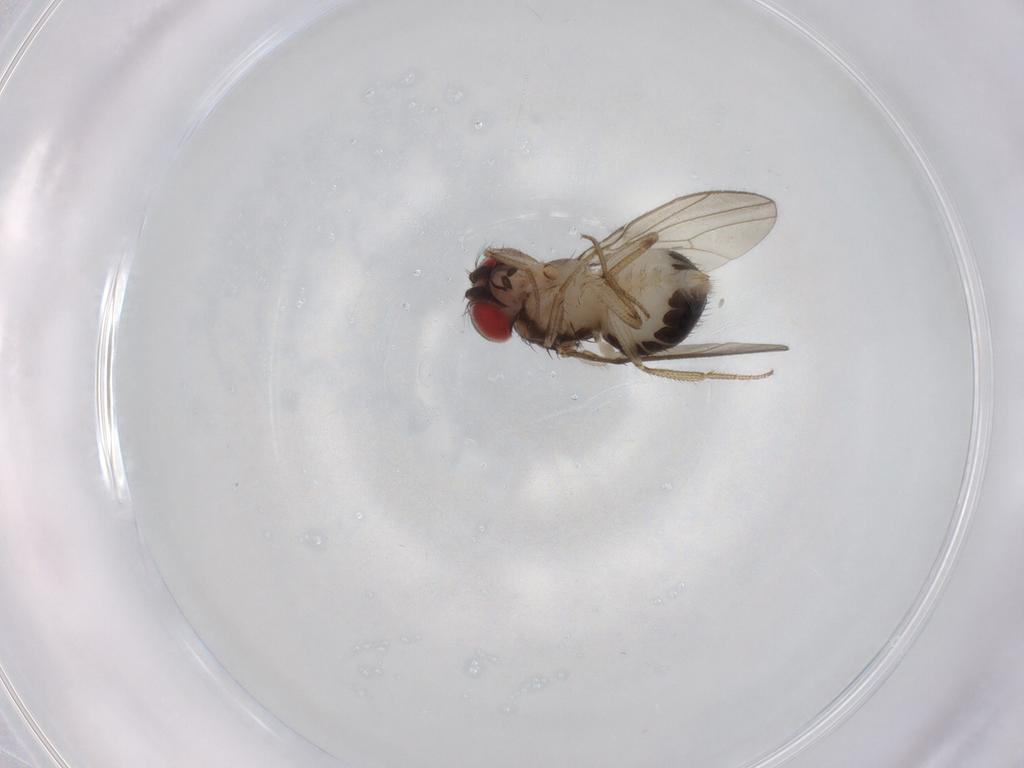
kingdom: Animalia
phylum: Arthropoda
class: Insecta
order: Diptera
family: Drosophilidae
